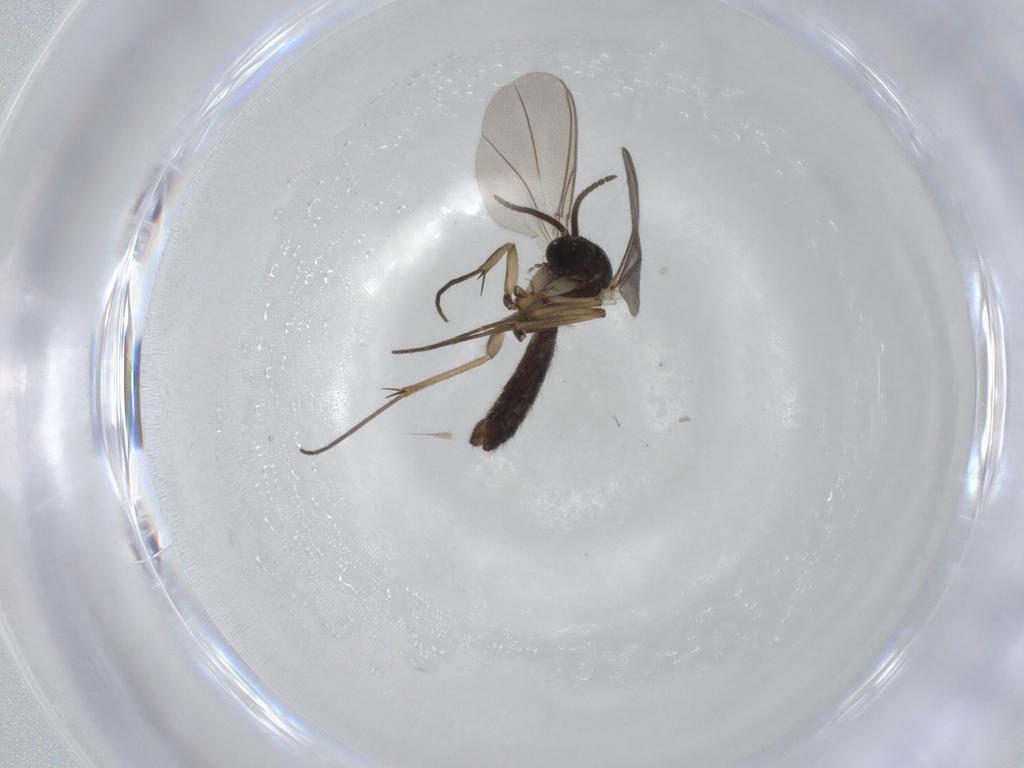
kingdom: Animalia
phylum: Arthropoda
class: Insecta
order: Diptera
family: Mycetophilidae
